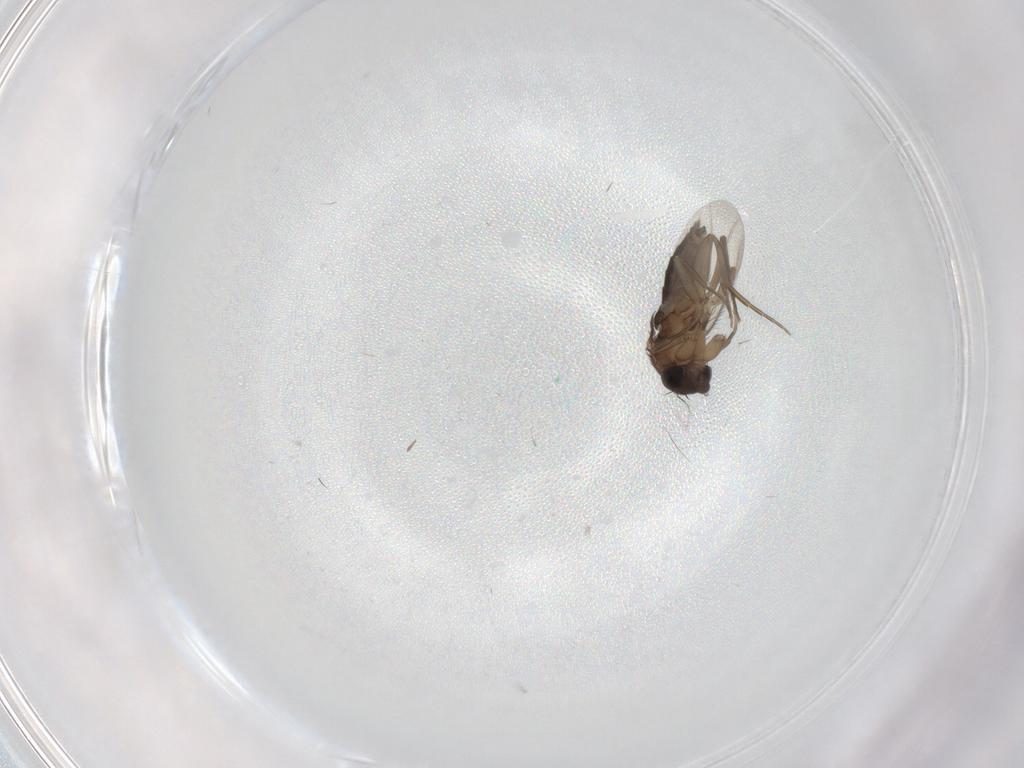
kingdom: Animalia
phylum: Arthropoda
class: Insecta
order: Diptera
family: Phoridae
